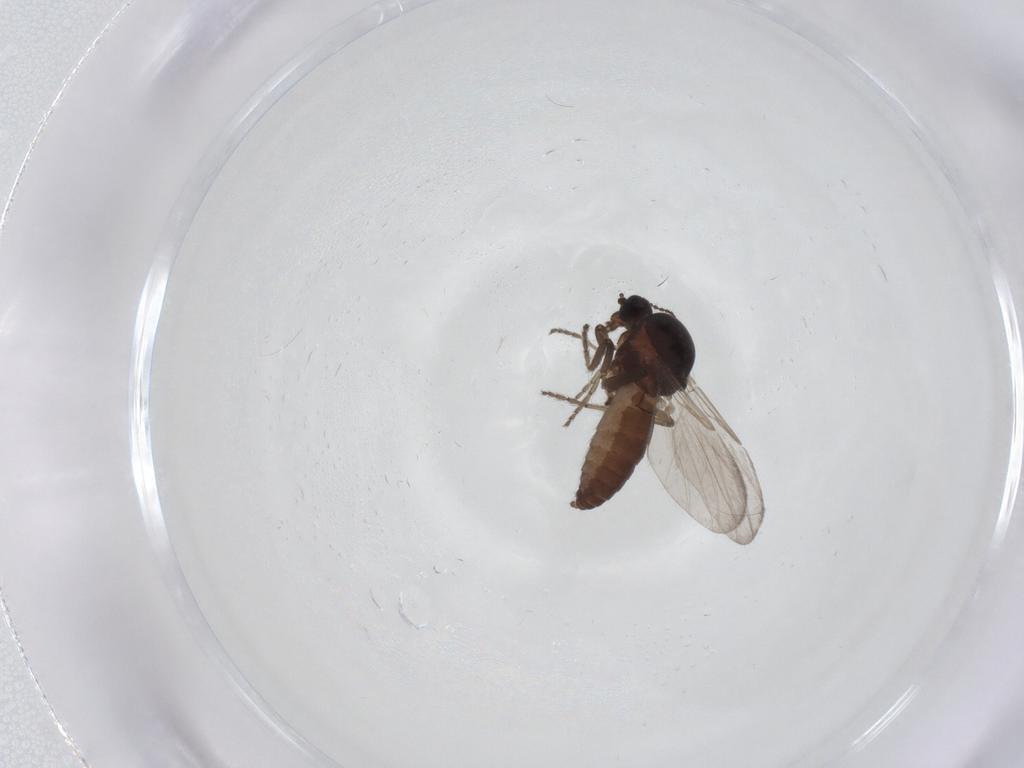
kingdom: Animalia
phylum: Arthropoda
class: Insecta
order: Diptera
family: Ceratopogonidae
